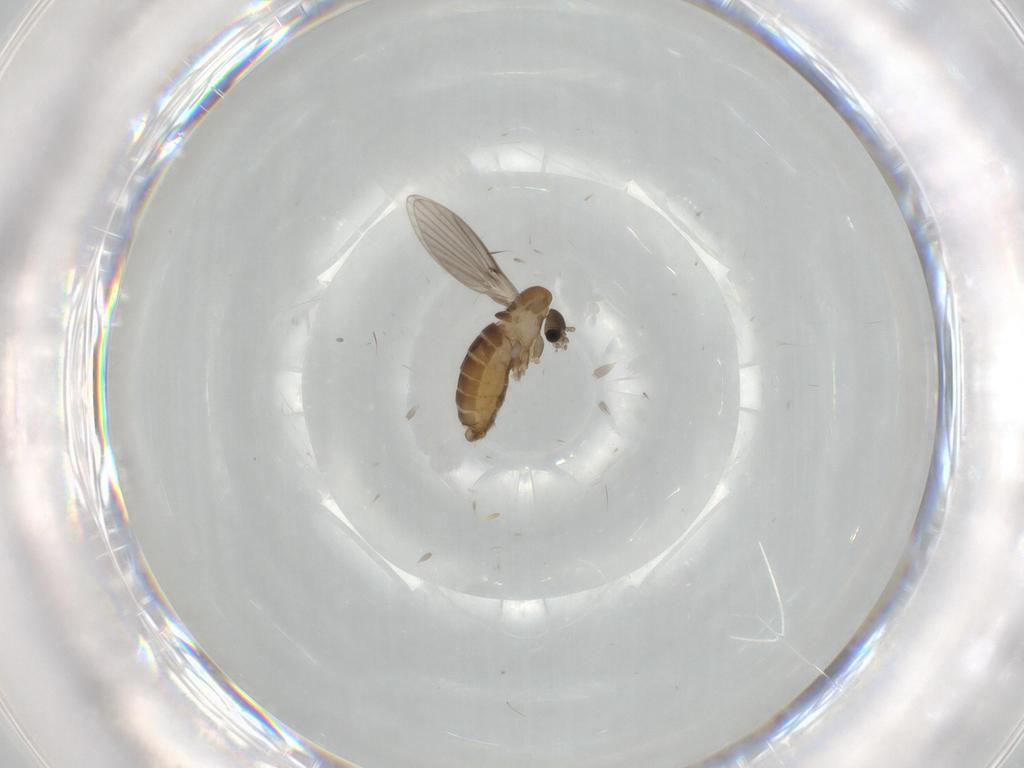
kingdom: Animalia
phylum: Arthropoda
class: Insecta
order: Diptera
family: Psychodidae
